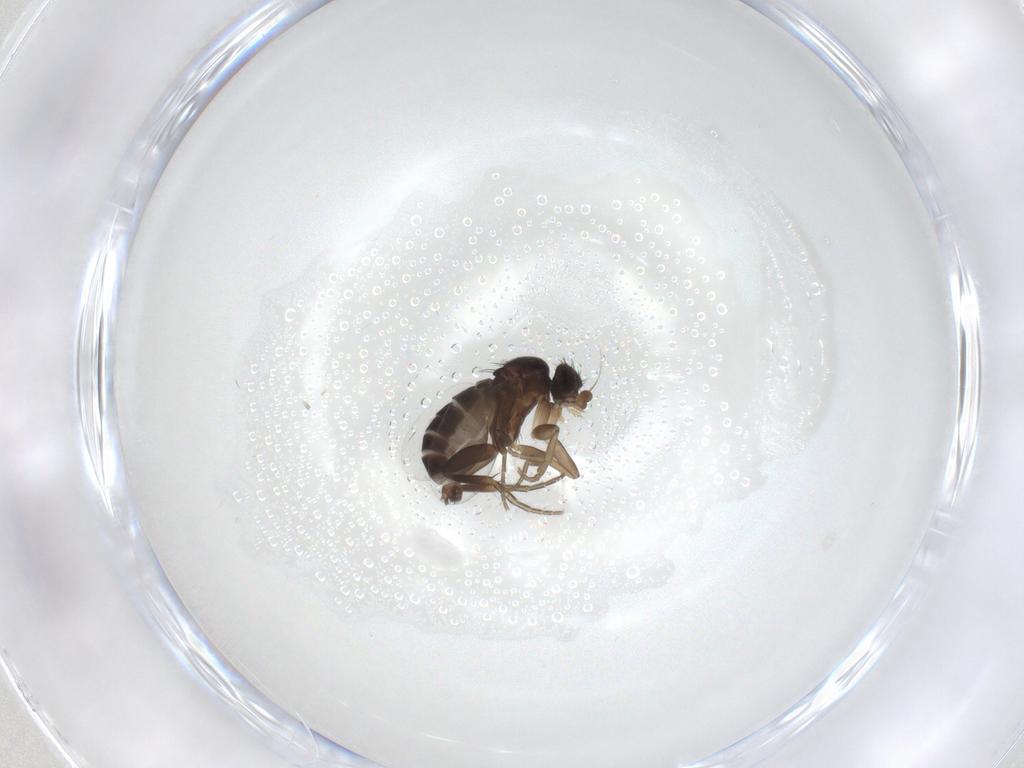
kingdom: Animalia
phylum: Arthropoda
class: Insecta
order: Diptera
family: Phoridae
